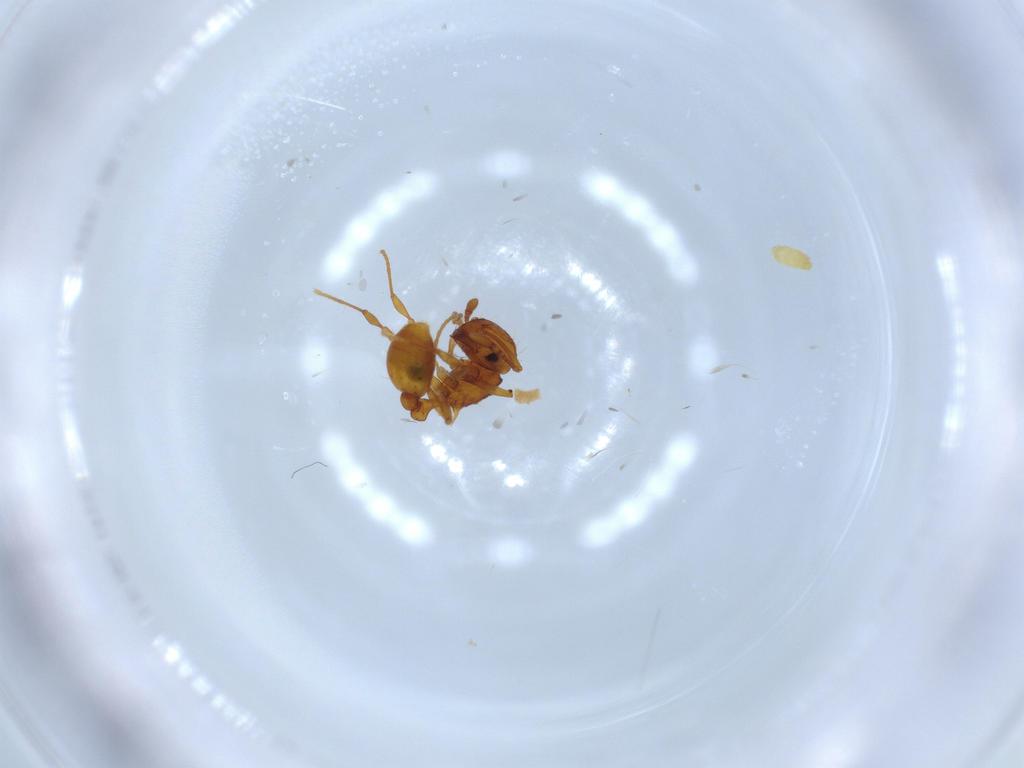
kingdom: Animalia
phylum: Arthropoda
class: Insecta
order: Hymenoptera
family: Formicidae
